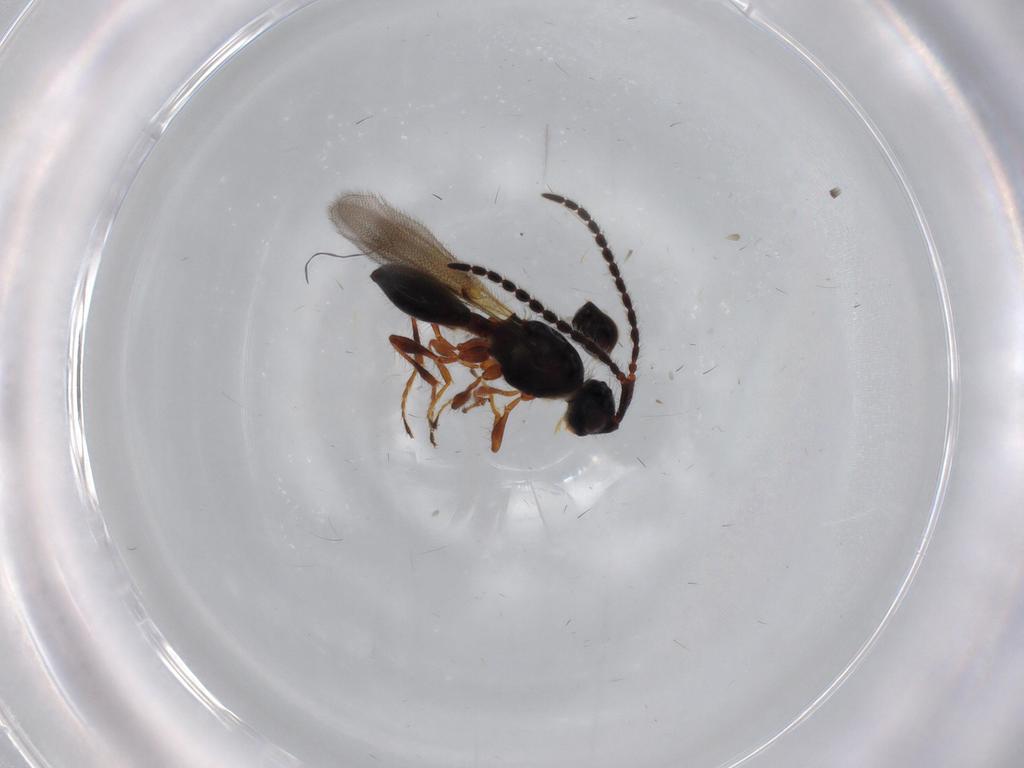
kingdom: Animalia
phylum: Arthropoda
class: Insecta
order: Hymenoptera
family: Diapriidae
